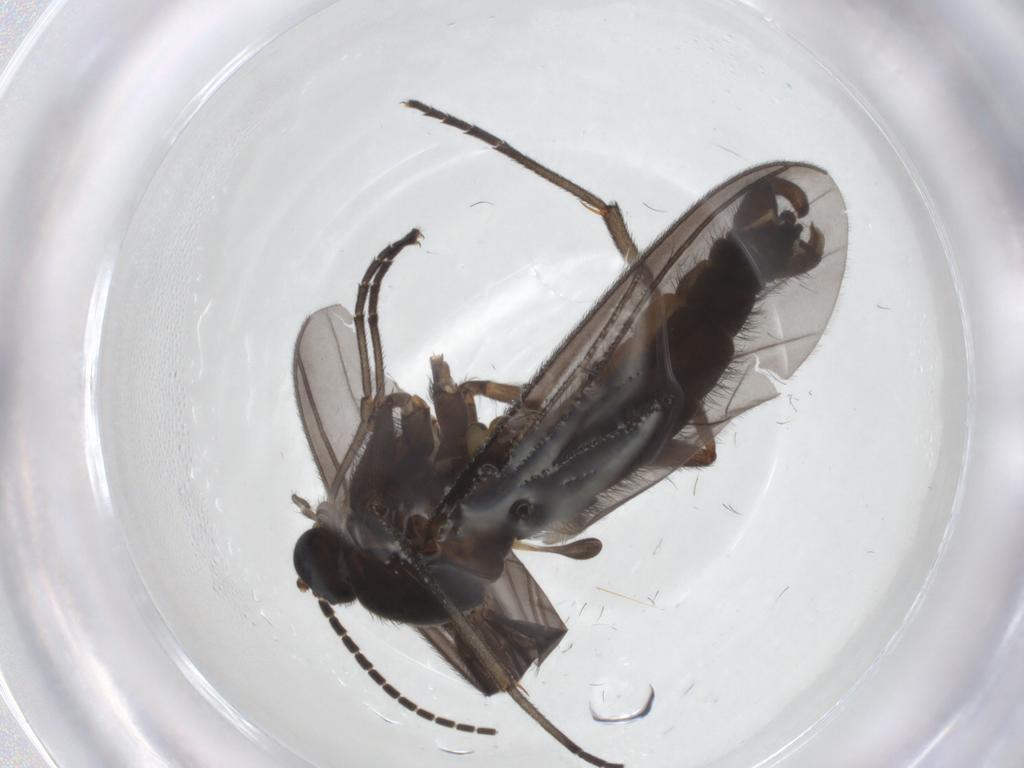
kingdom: Animalia
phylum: Arthropoda
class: Insecta
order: Diptera
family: Sciaridae
